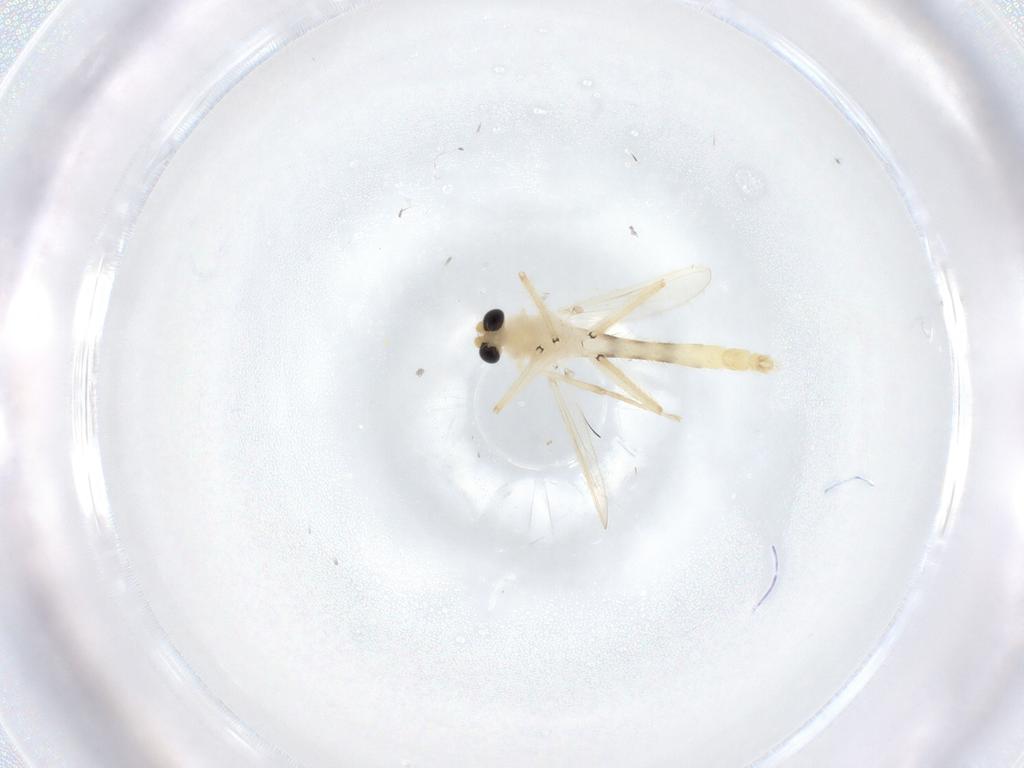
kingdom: Animalia
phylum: Arthropoda
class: Insecta
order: Diptera
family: Chironomidae
